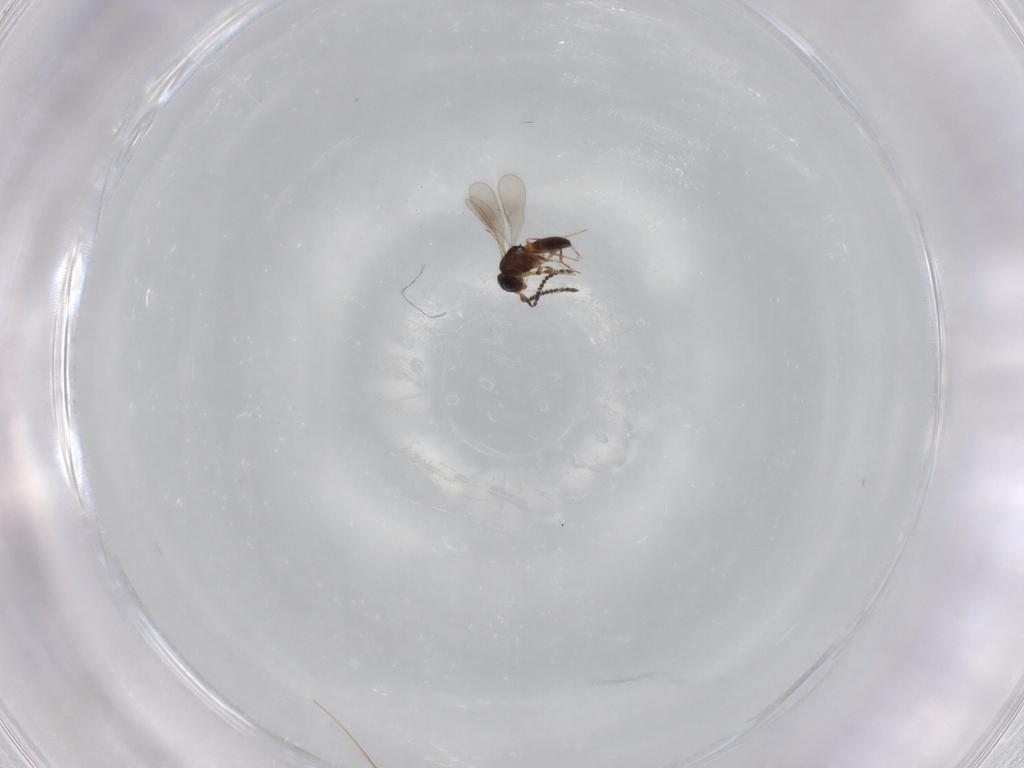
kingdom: Animalia
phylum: Arthropoda
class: Insecta
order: Hymenoptera
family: Scelionidae
